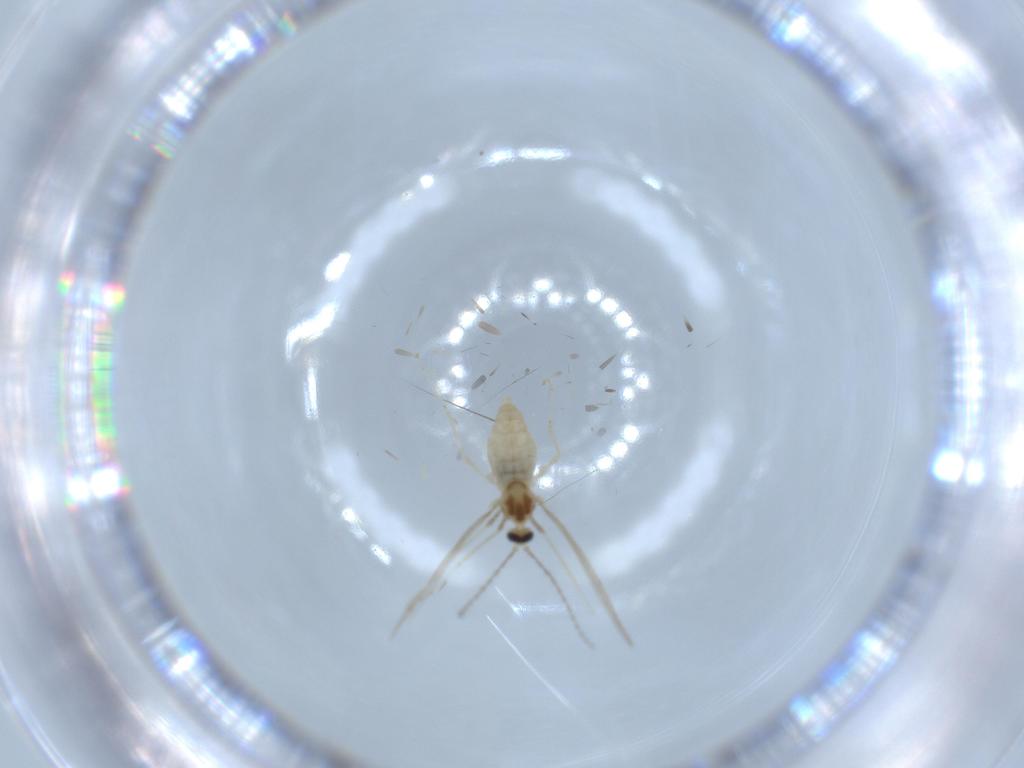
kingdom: Animalia
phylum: Arthropoda
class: Insecta
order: Diptera
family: Cecidomyiidae
